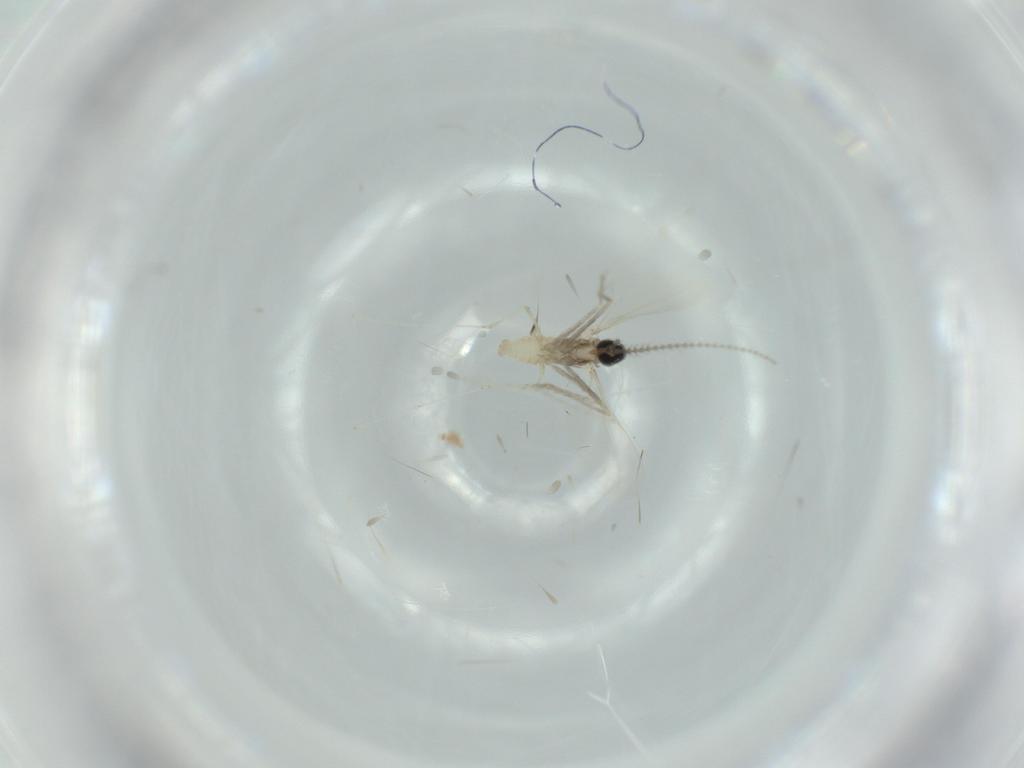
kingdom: Animalia
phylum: Arthropoda
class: Insecta
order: Diptera
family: Cecidomyiidae
